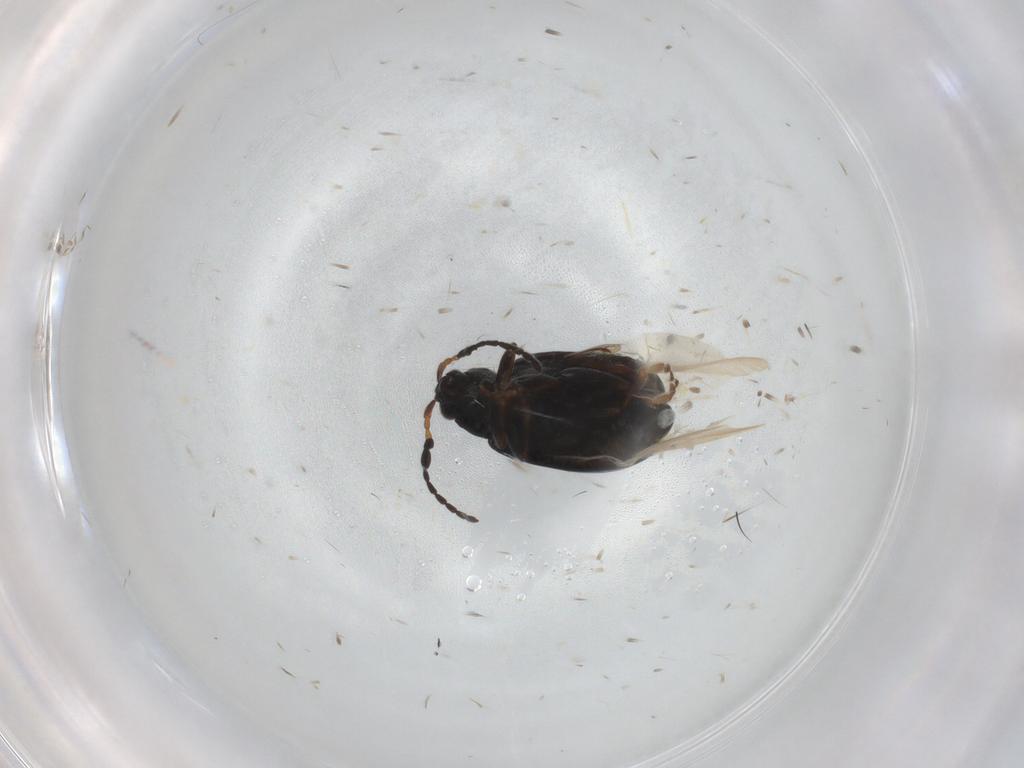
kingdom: Animalia
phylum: Arthropoda
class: Insecta
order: Coleoptera
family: Chrysomelidae
